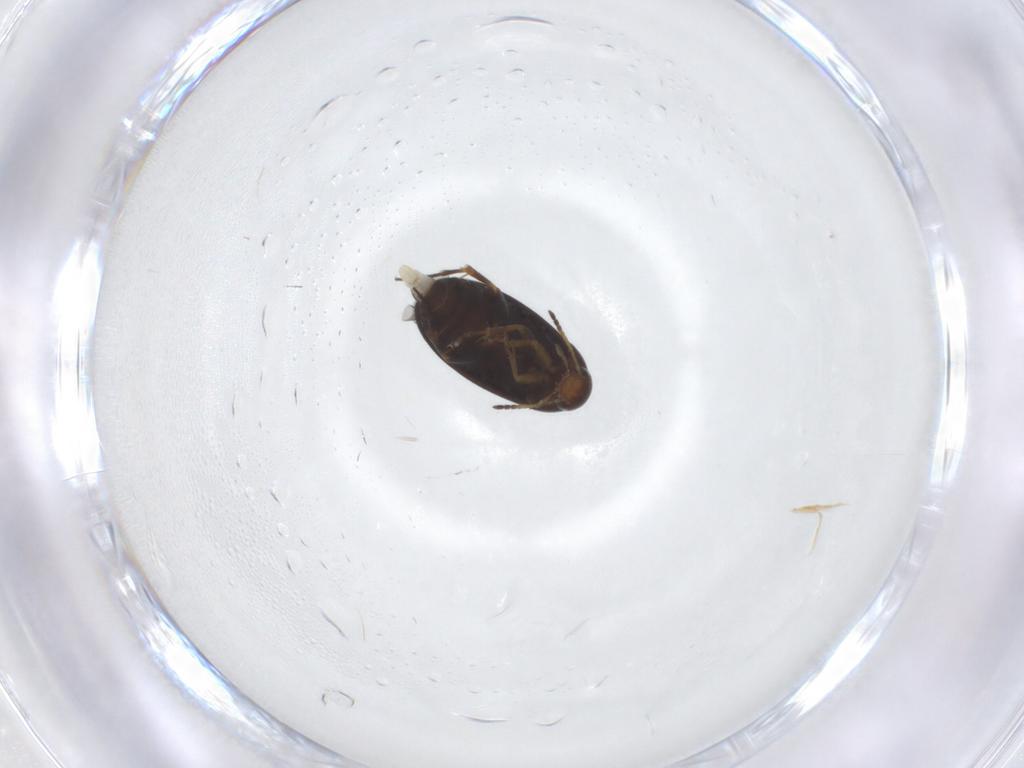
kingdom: Animalia
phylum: Arthropoda
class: Insecta
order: Coleoptera
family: Scraptiidae
